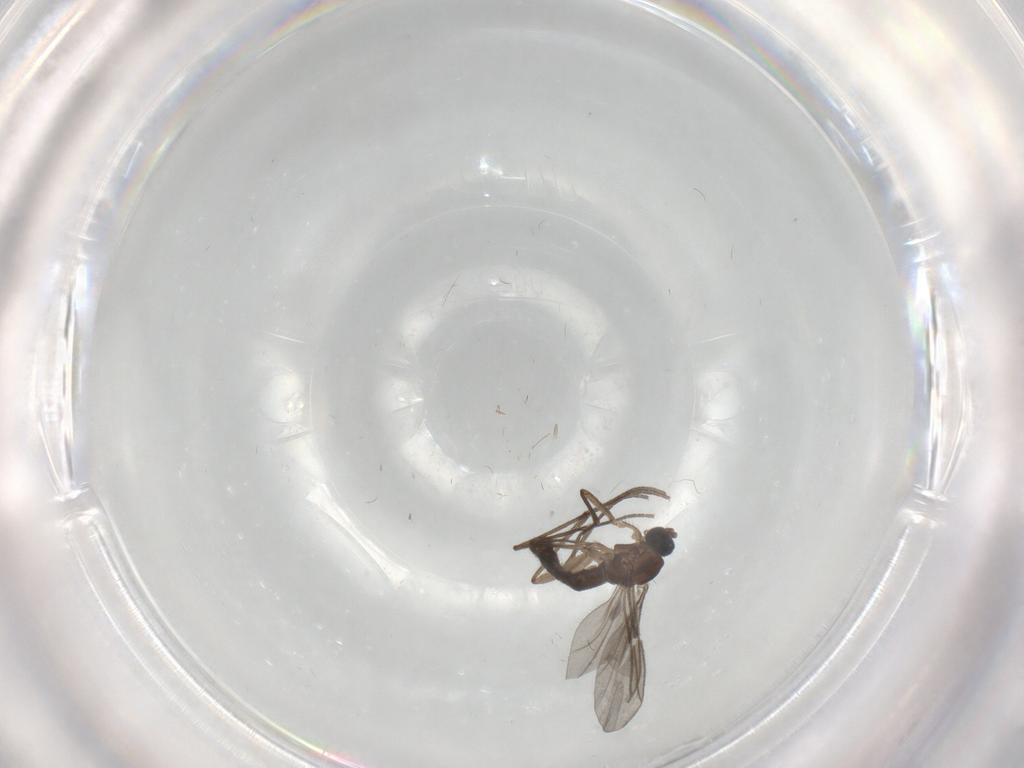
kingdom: Animalia
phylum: Arthropoda
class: Insecta
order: Diptera
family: Sciaridae
